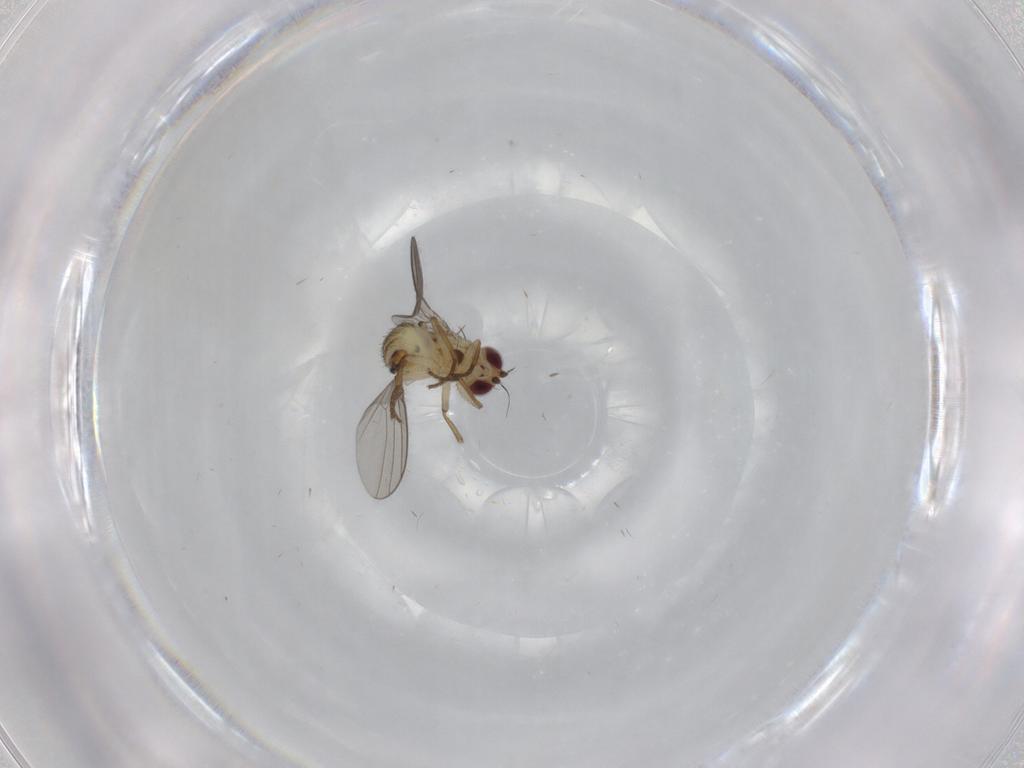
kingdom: Animalia
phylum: Arthropoda
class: Insecta
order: Diptera
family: Agromyzidae
